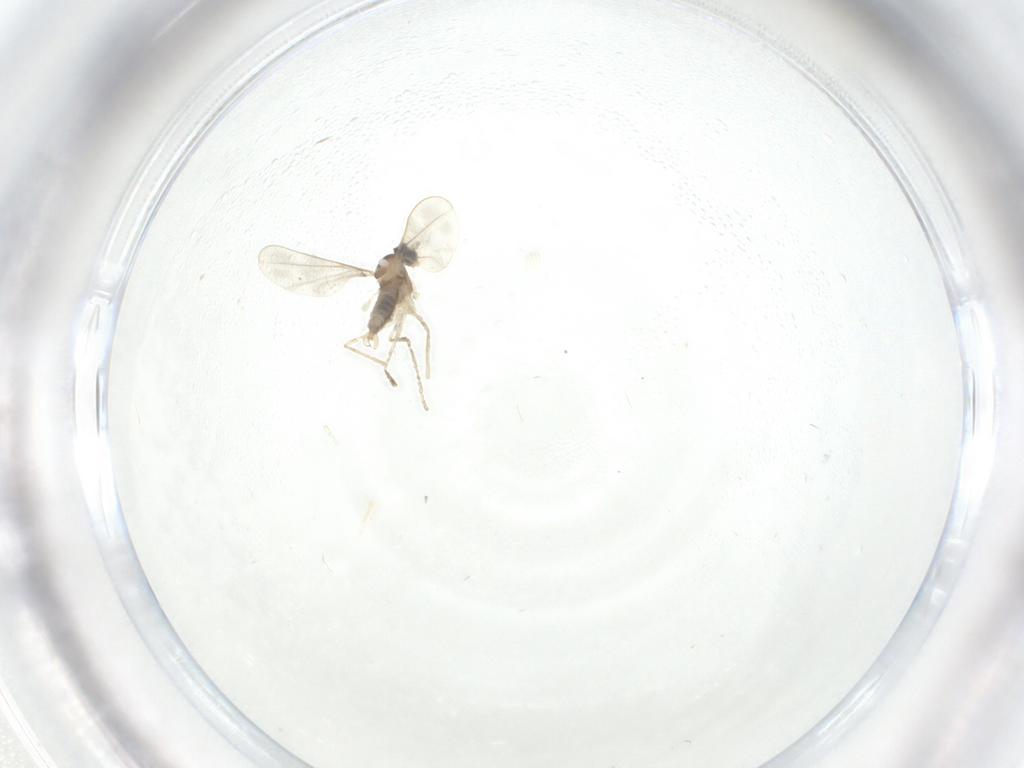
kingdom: Animalia
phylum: Arthropoda
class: Insecta
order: Diptera
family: Cecidomyiidae
